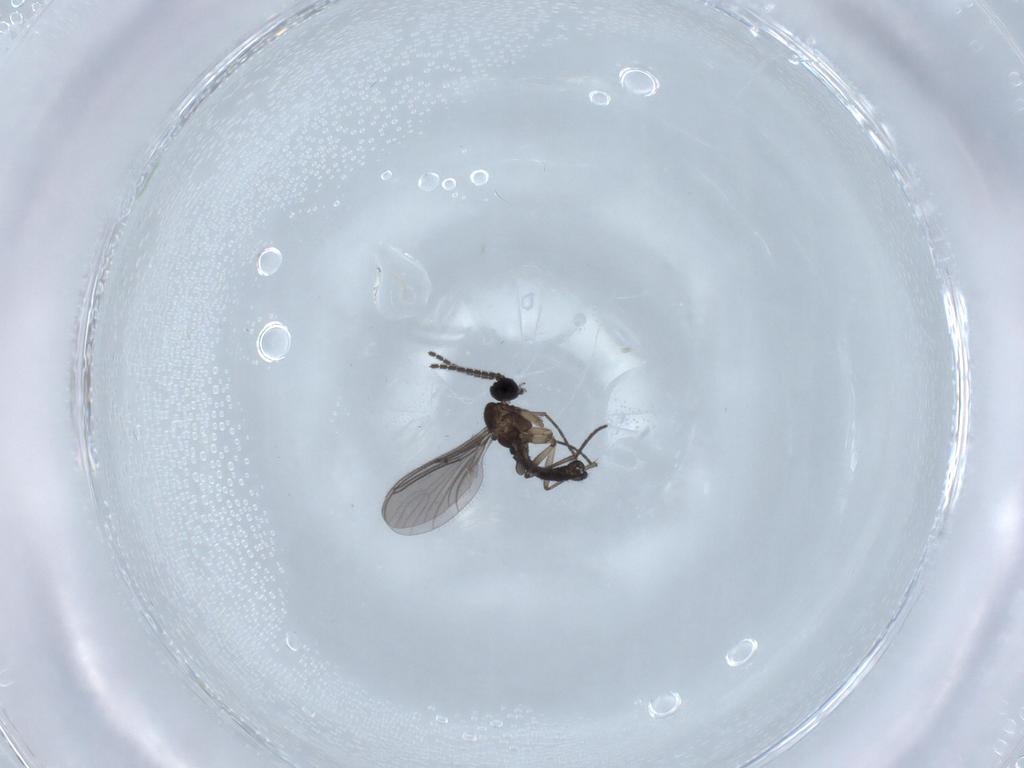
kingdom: Animalia
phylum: Arthropoda
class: Insecta
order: Diptera
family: Sciaridae
